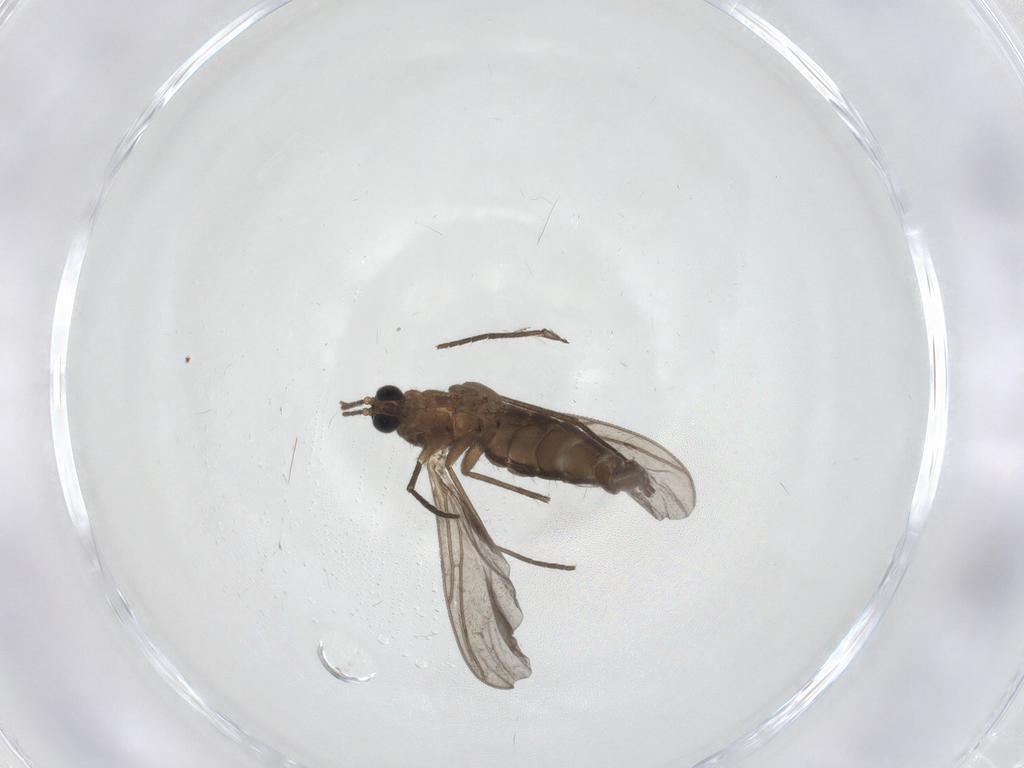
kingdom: Animalia
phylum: Arthropoda
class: Insecta
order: Diptera
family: Ceratopogonidae
